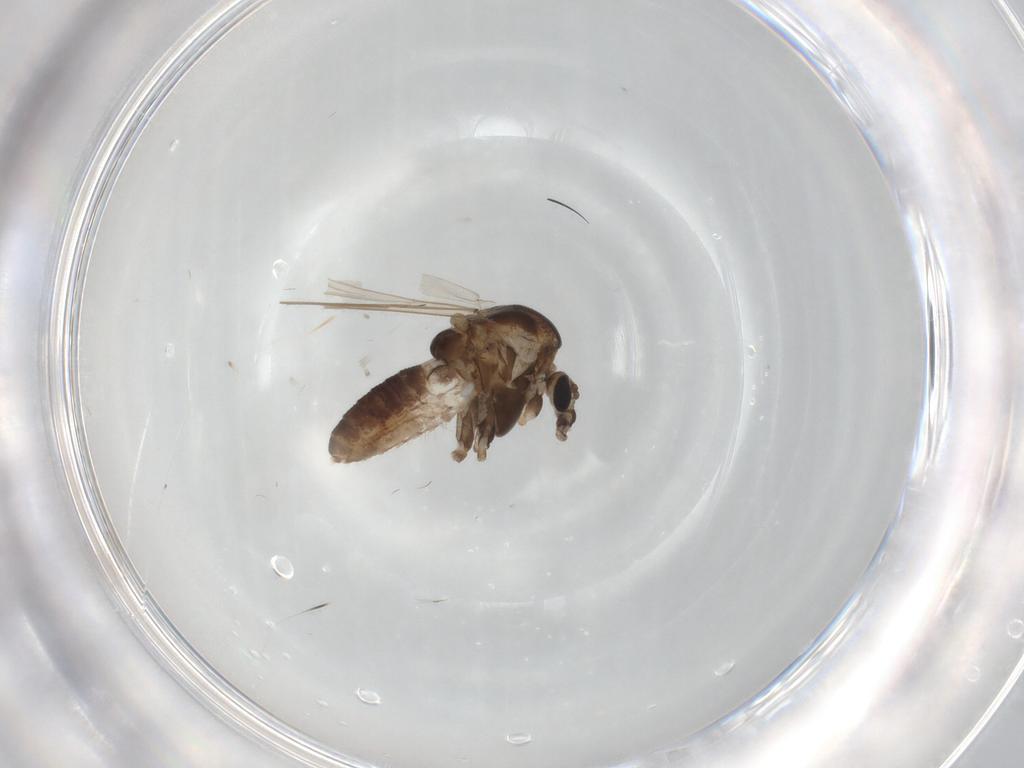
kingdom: Animalia
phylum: Arthropoda
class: Insecta
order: Diptera
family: Chironomidae
